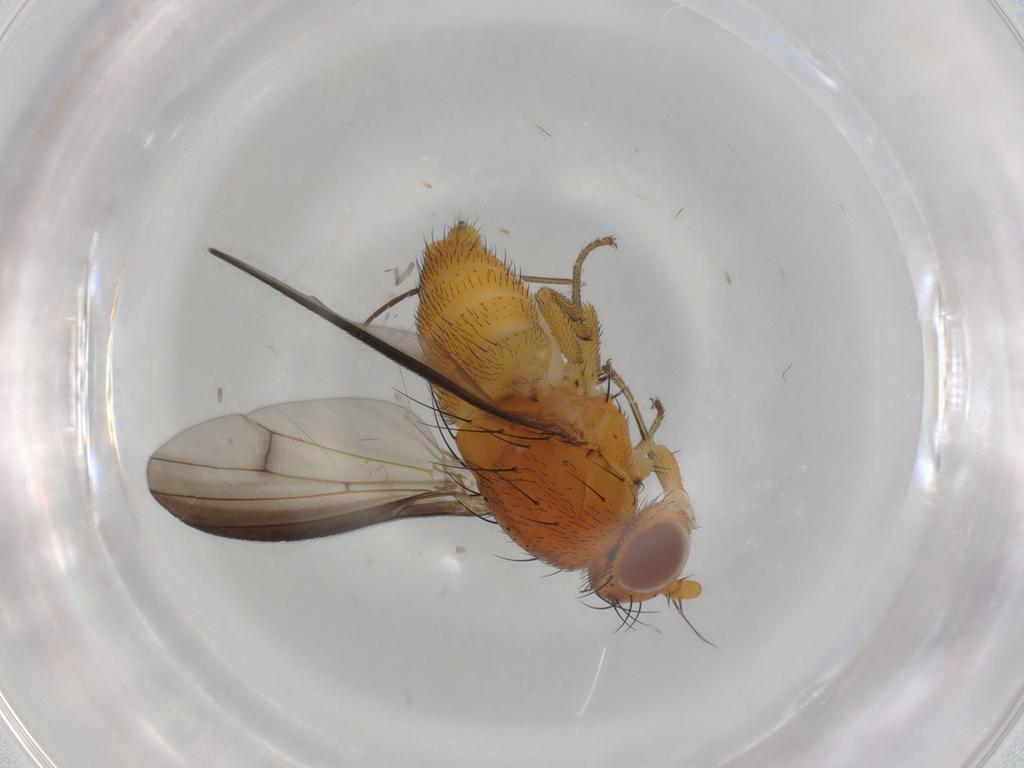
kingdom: Animalia
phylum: Arthropoda
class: Insecta
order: Diptera
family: Lauxaniidae
